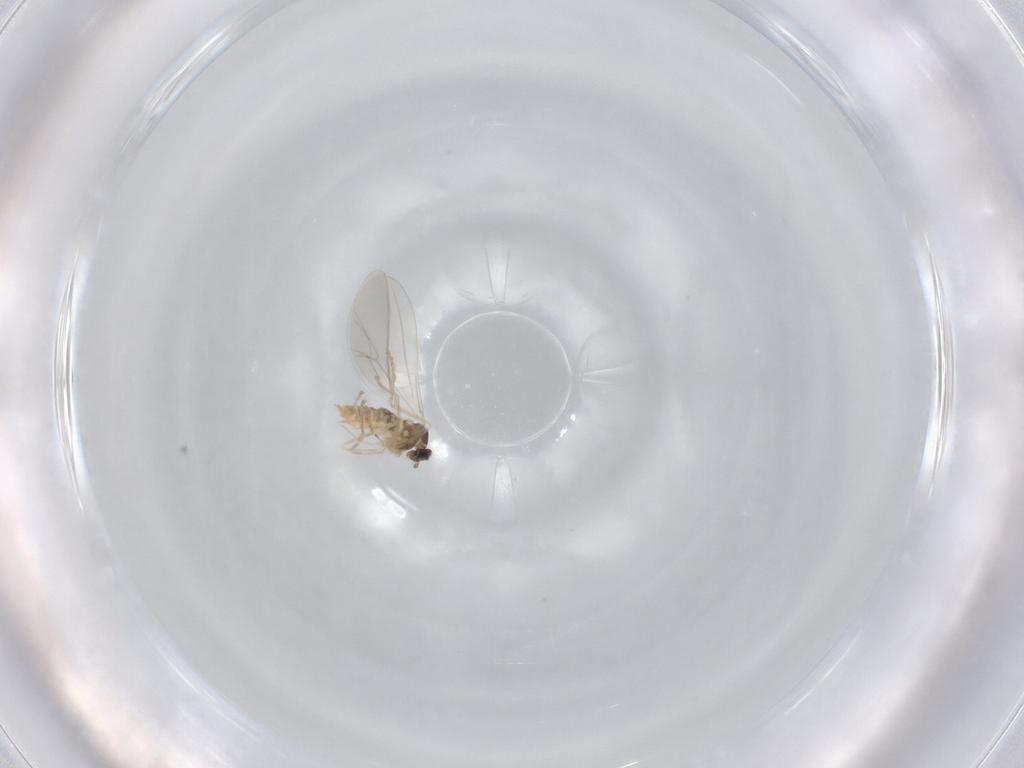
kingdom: Animalia
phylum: Arthropoda
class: Insecta
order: Diptera
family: Cecidomyiidae
